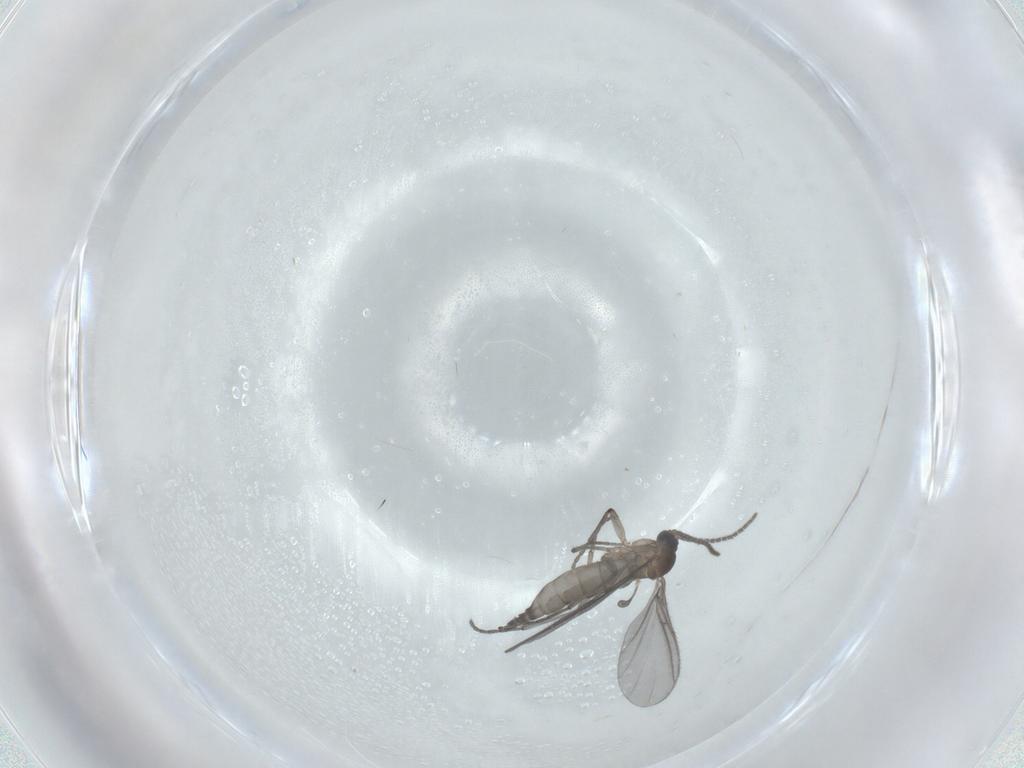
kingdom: Animalia
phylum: Arthropoda
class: Insecta
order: Diptera
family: Sciaridae
